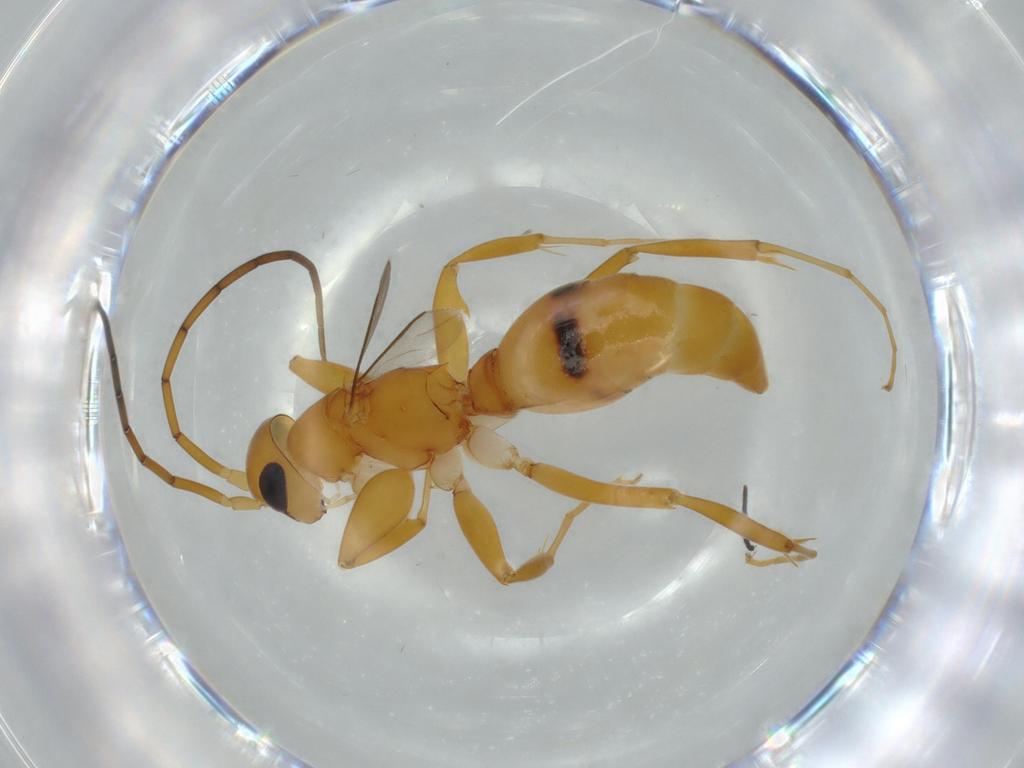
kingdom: Animalia
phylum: Arthropoda
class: Insecta
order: Hymenoptera
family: Rhopalosomatidae
